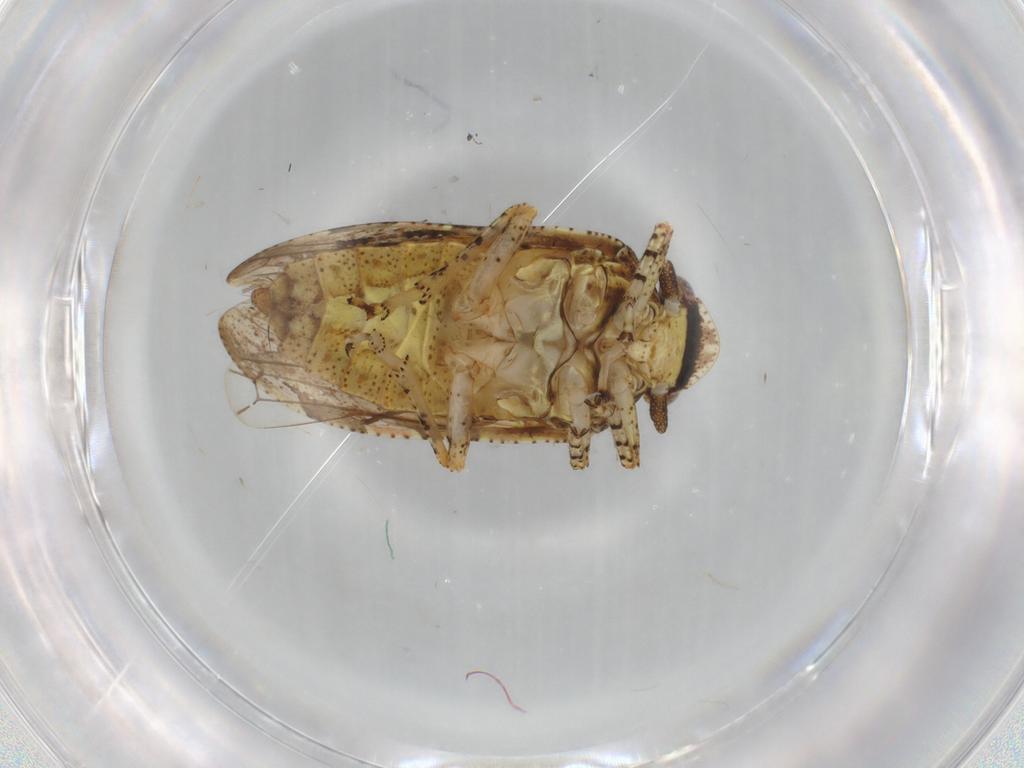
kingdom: Animalia
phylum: Arthropoda
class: Insecta
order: Hemiptera
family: Tettigometridae
